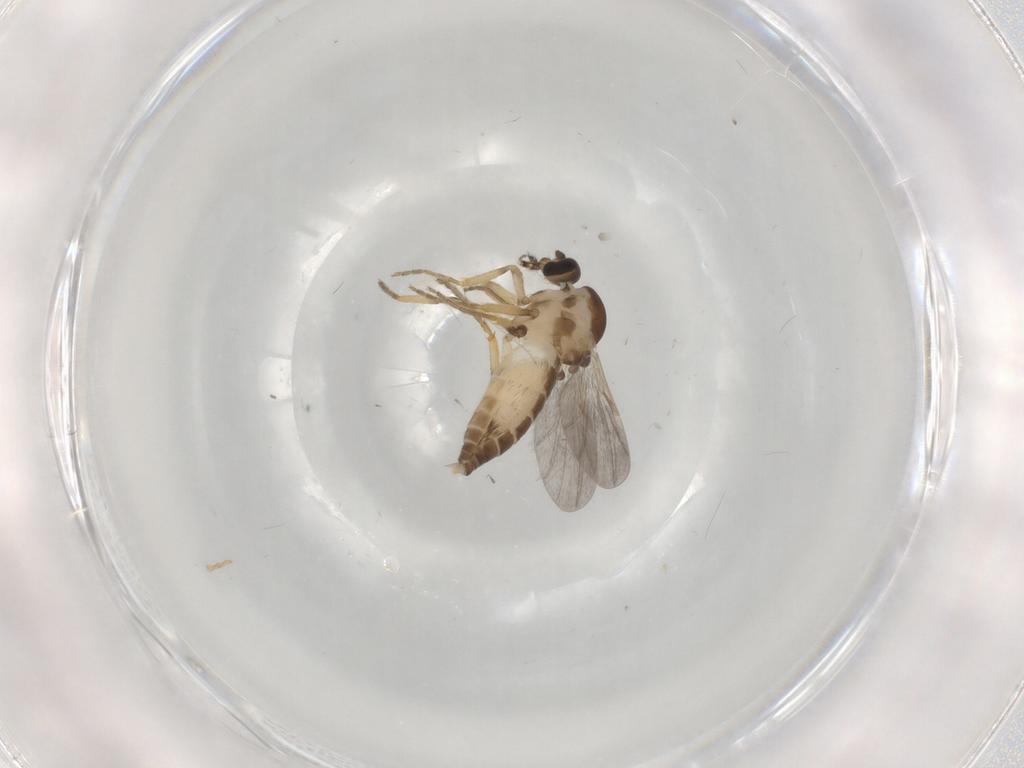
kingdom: Animalia
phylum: Arthropoda
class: Insecta
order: Diptera
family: Ceratopogonidae
